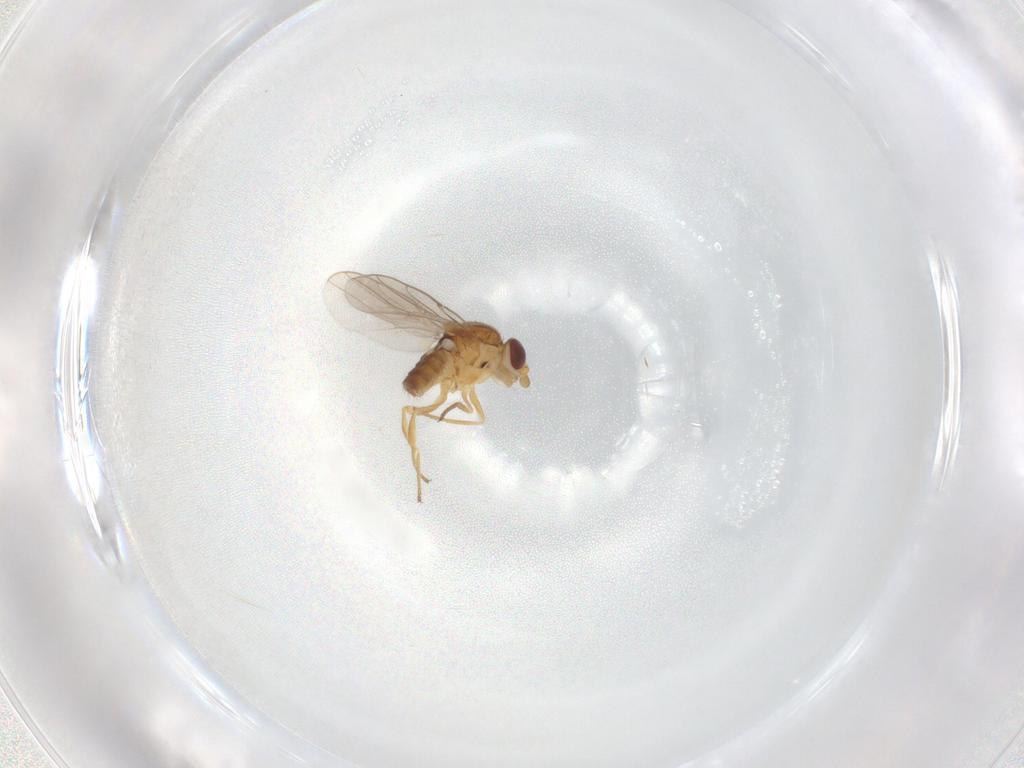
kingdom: Animalia
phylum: Arthropoda
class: Insecta
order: Diptera
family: Chloropidae
